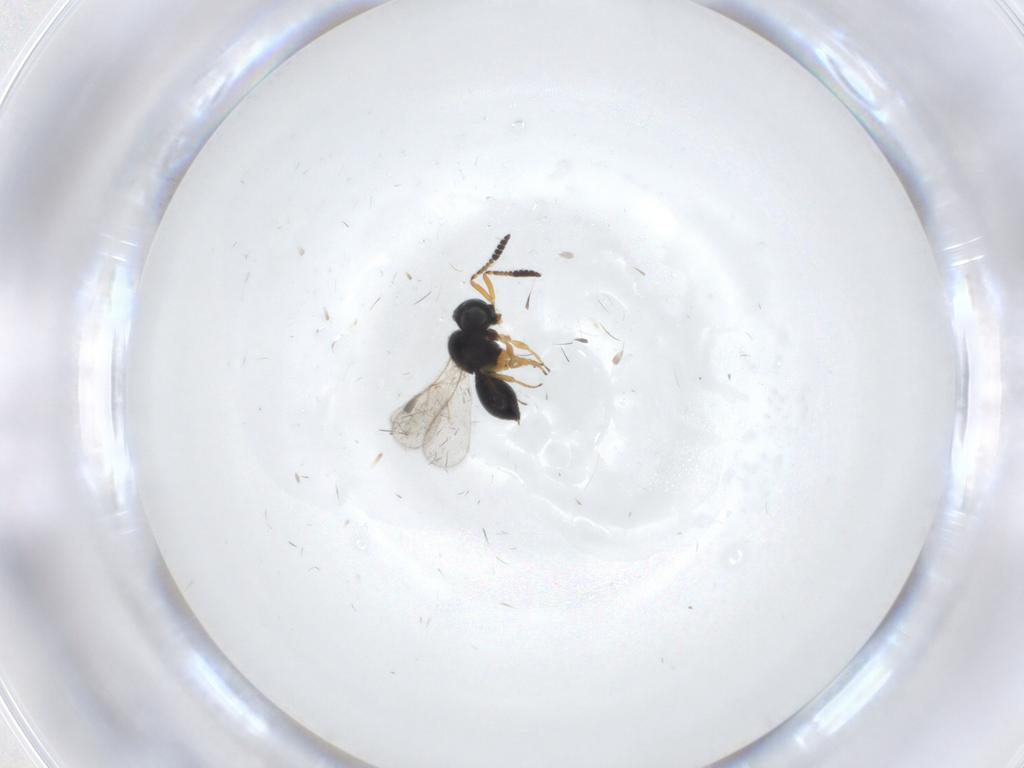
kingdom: Animalia
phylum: Arthropoda
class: Insecta
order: Hymenoptera
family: Scelionidae
